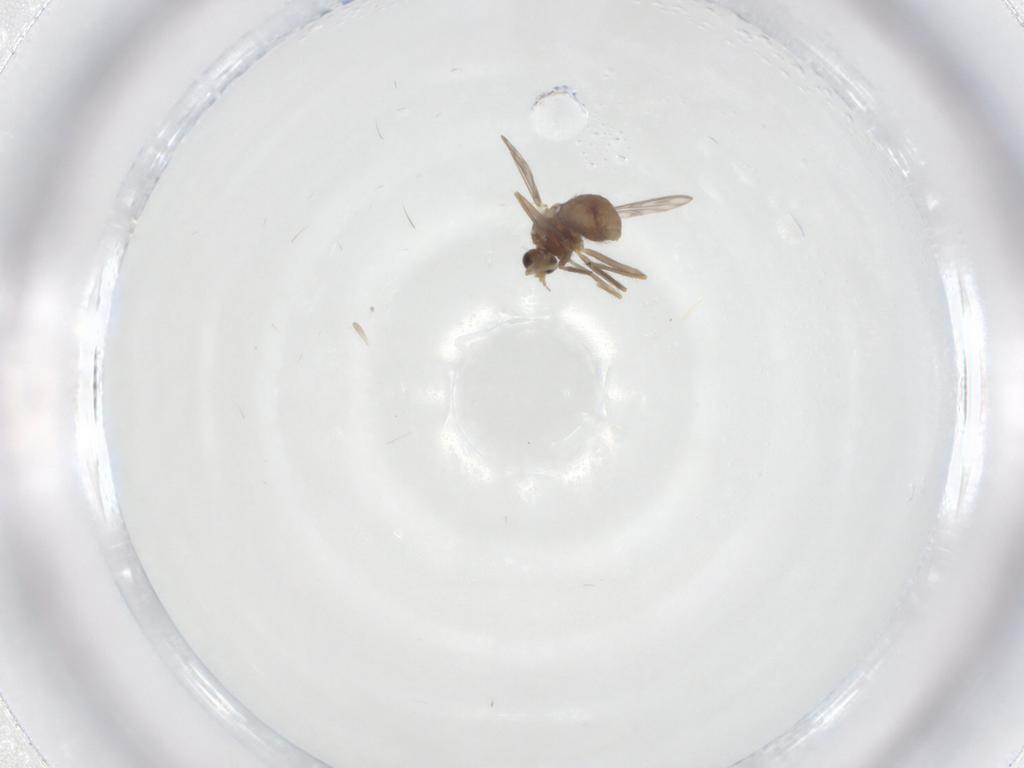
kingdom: Animalia
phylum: Arthropoda
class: Insecta
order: Diptera
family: Chironomidae
